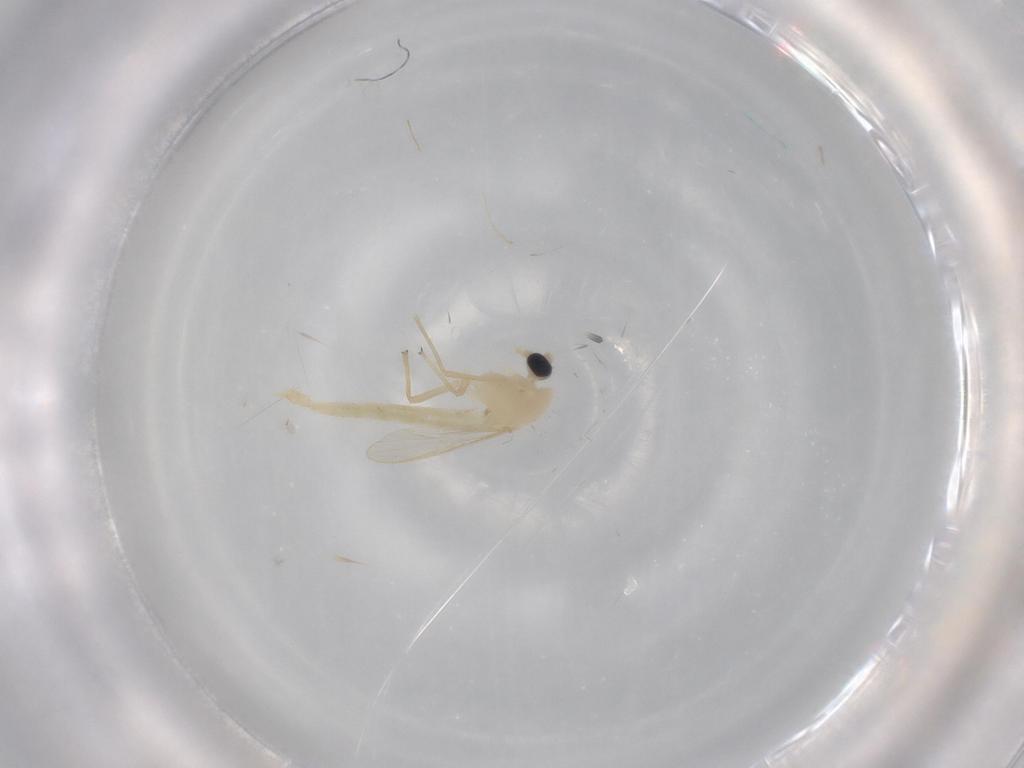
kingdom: Animalia
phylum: Arthropoda
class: Insecta
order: Diptera
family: Chironomidae
